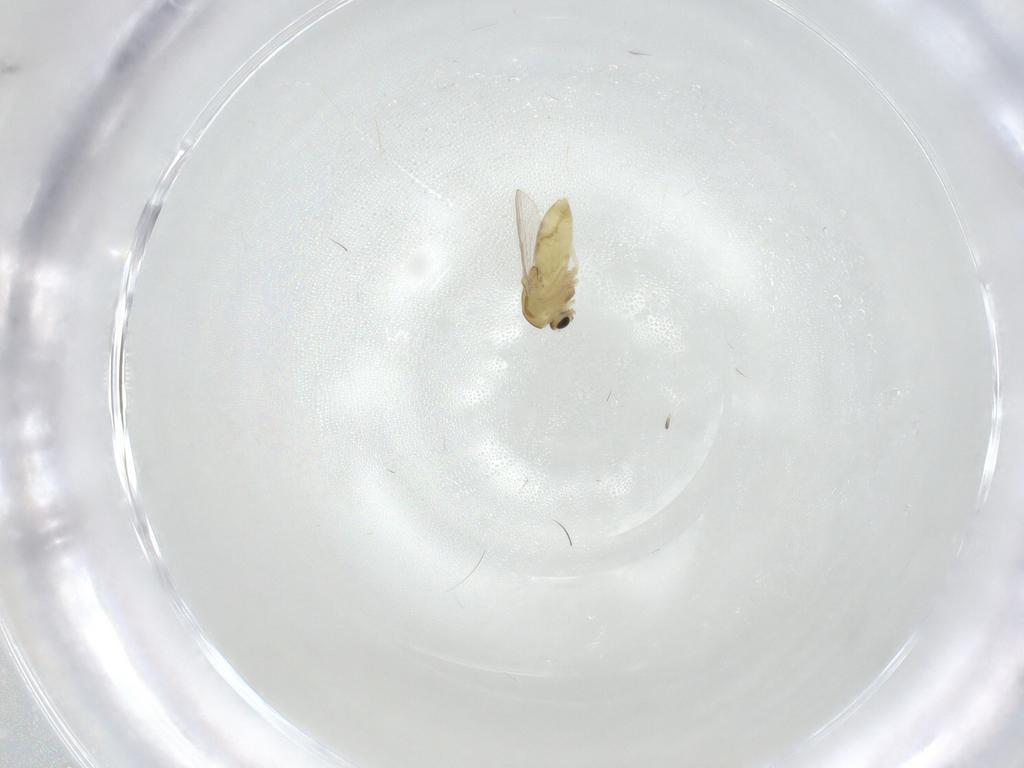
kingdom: Animalia
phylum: Arthropoda
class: Insecta
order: Diptera
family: Chironomidae
